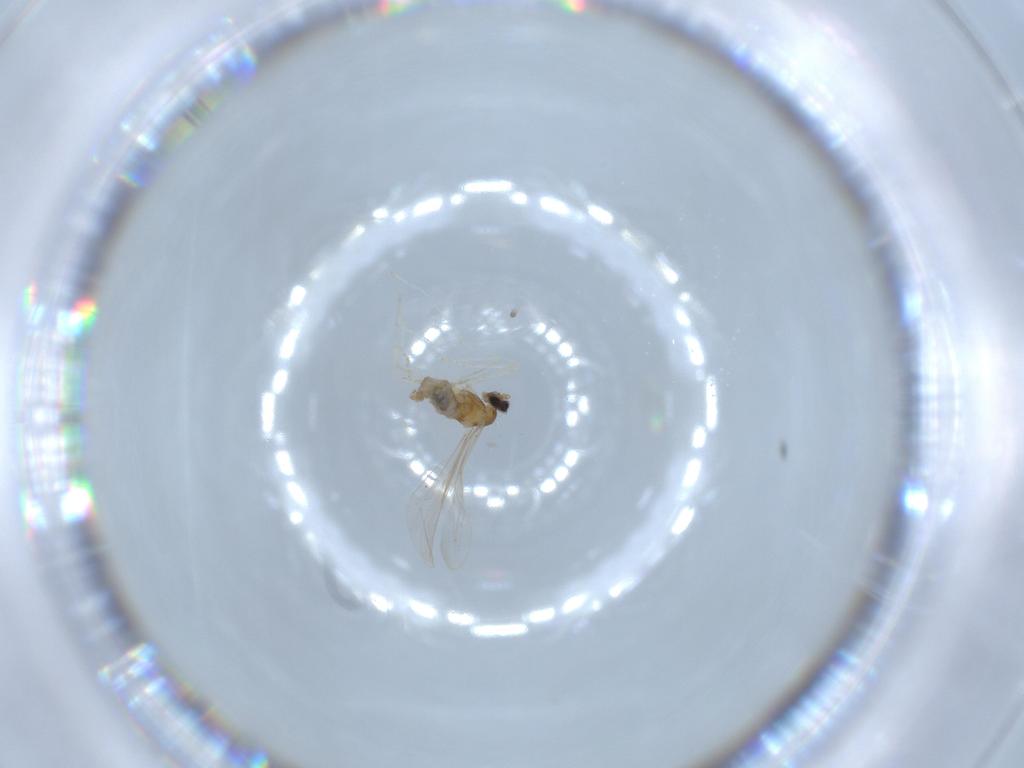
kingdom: Animalia
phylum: Arthropoda
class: Insecta
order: Diptera
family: Cecidomyiidae
